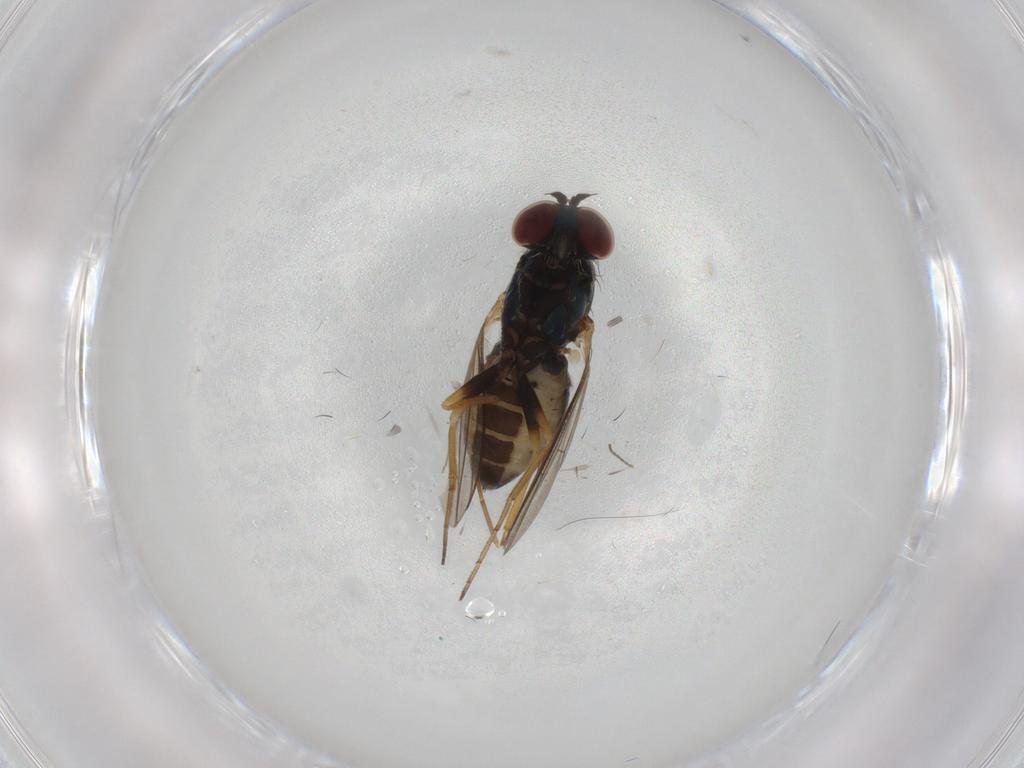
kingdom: Animalia
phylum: Arthropoda
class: Insecta
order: Diptera
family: Dolichopodidae
